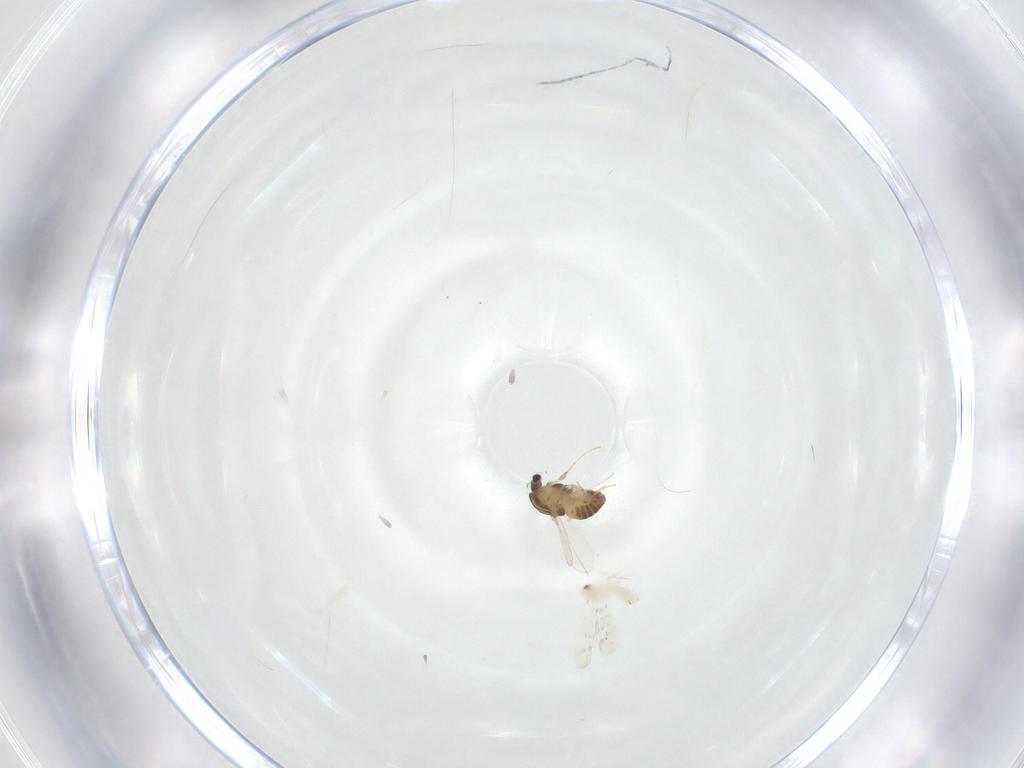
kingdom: Animalia
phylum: Arthropoda
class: Insecta
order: Diptera
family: Chironomidae
